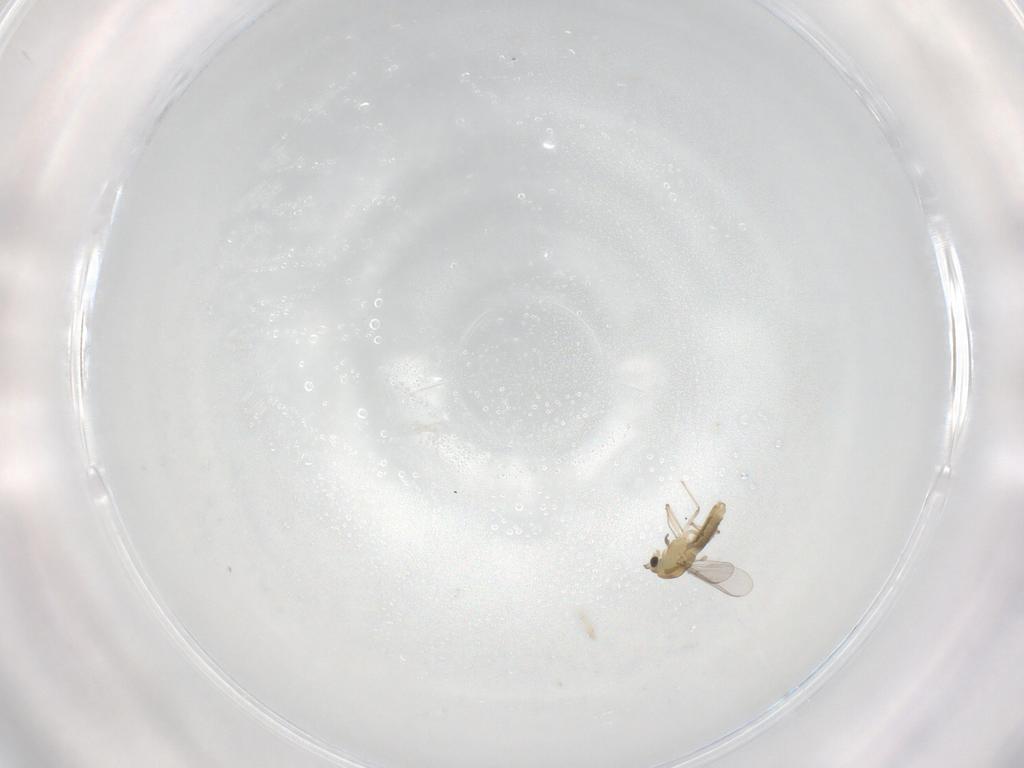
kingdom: Animalia
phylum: Arthropoda
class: Insecta
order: Diptera
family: Chironomidae
